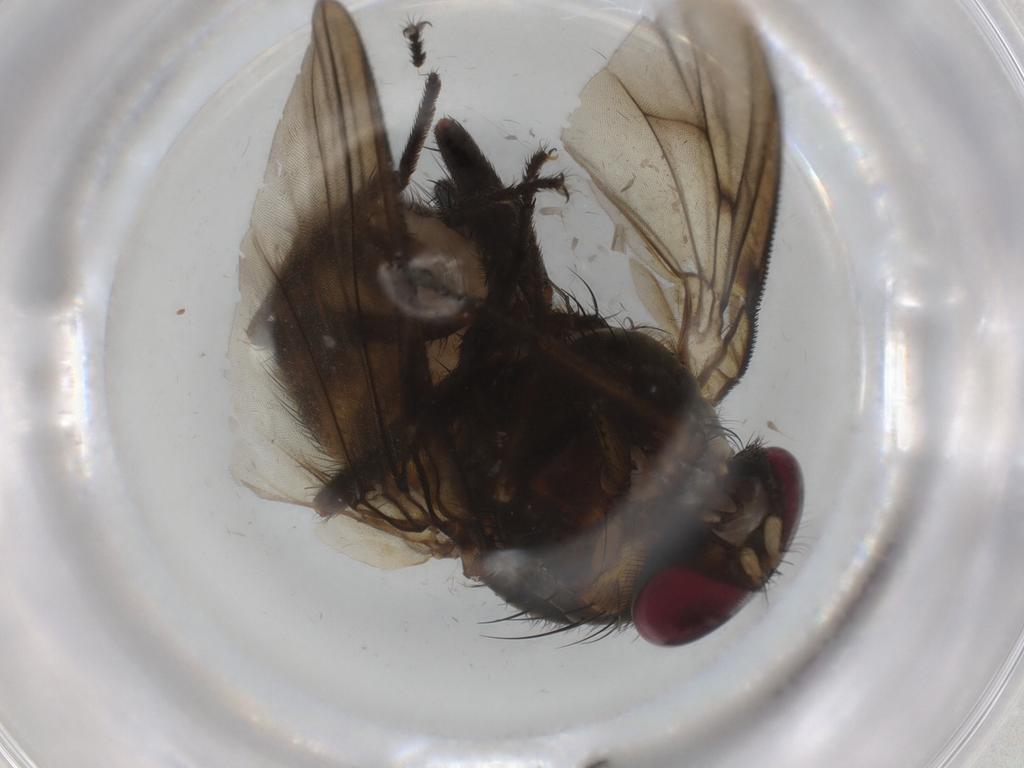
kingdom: Animalia
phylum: Arthropoda
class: Insecta
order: Diptera
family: Muscidae
